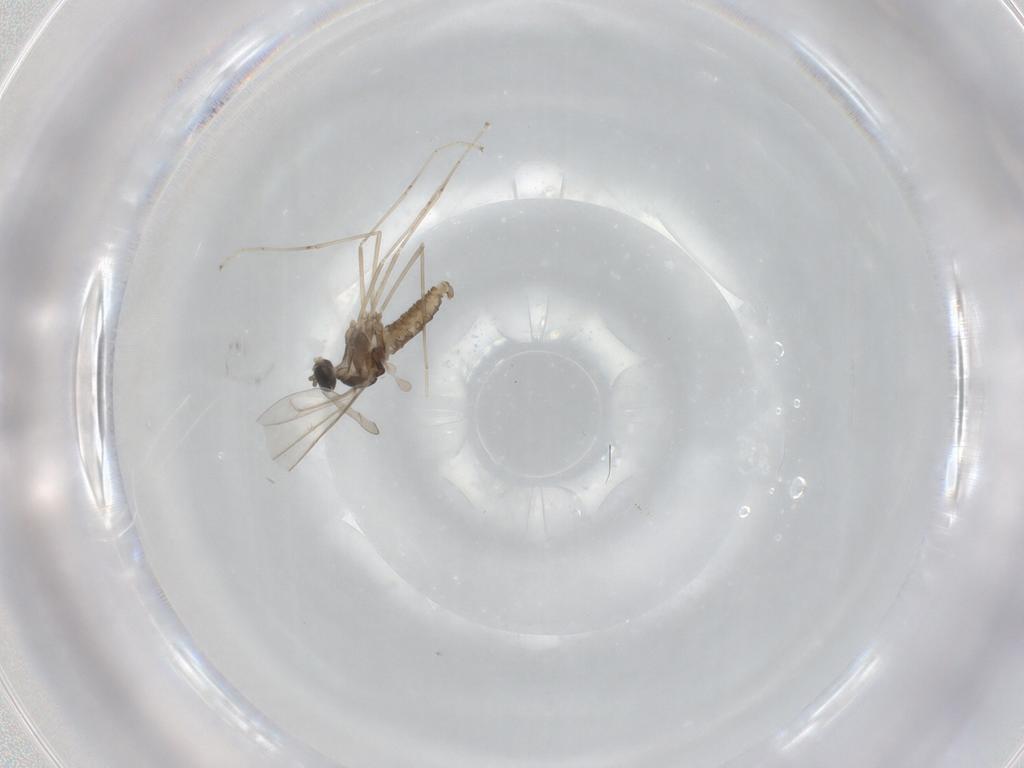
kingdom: Animalia
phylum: Arthropoda
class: Insecta
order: Diptera
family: Cecidomyiidae
